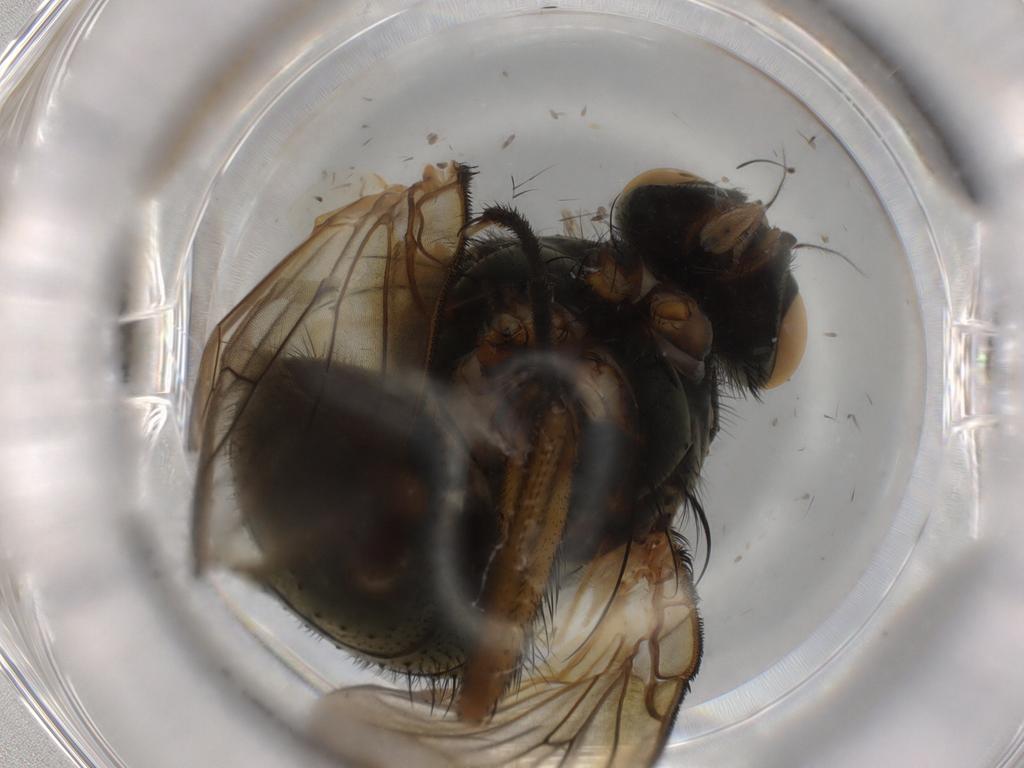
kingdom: Animalia
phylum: Arthropoda
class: Insecta
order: Diptera
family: Muscidae
